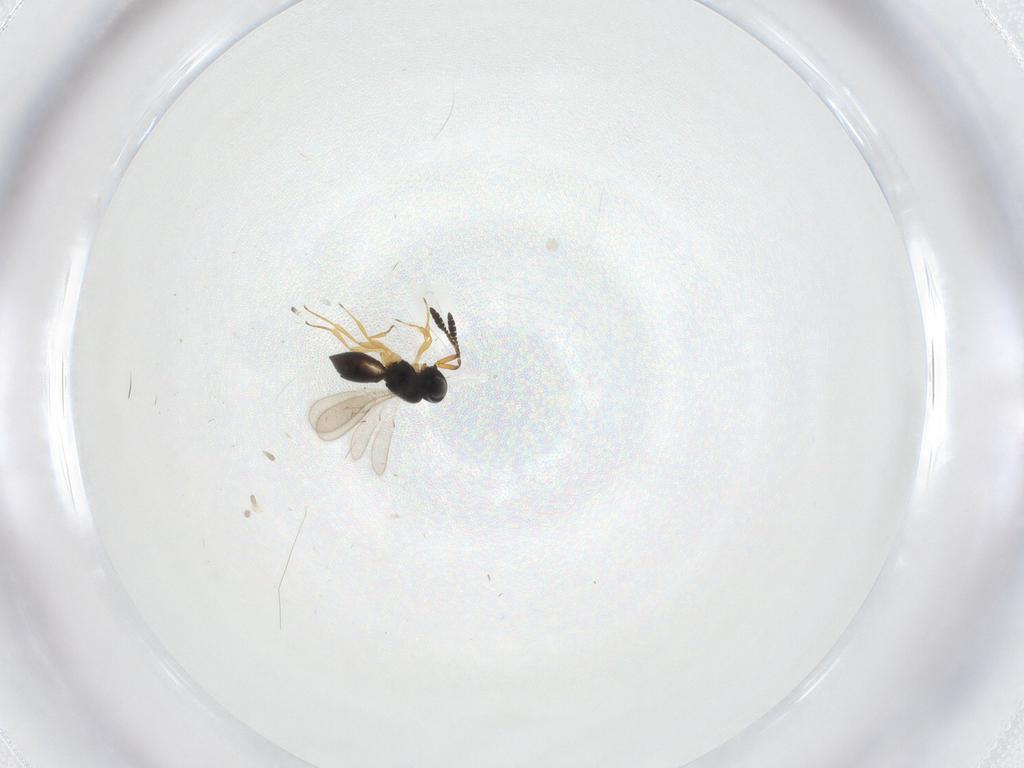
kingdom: Animalia
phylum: Arthropoda
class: Insecta
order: Hymenoptera
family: Scelionidae
